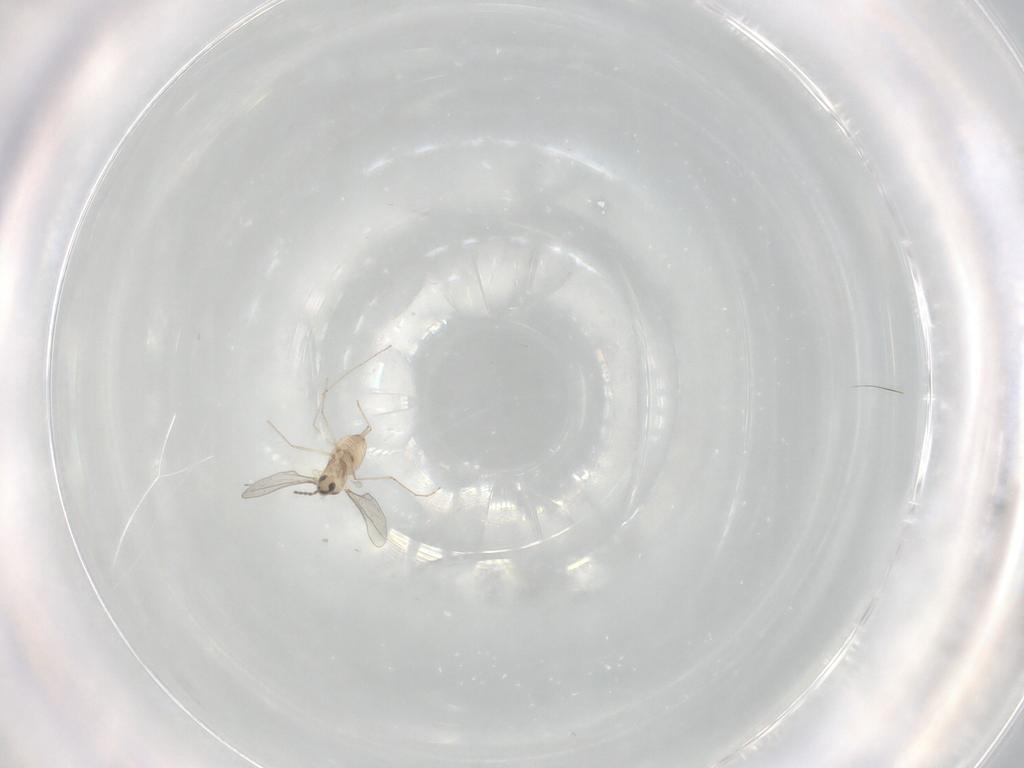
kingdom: Animalia
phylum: Arthropoda
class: Insecta
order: Diptera
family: Cecidomyiidae
